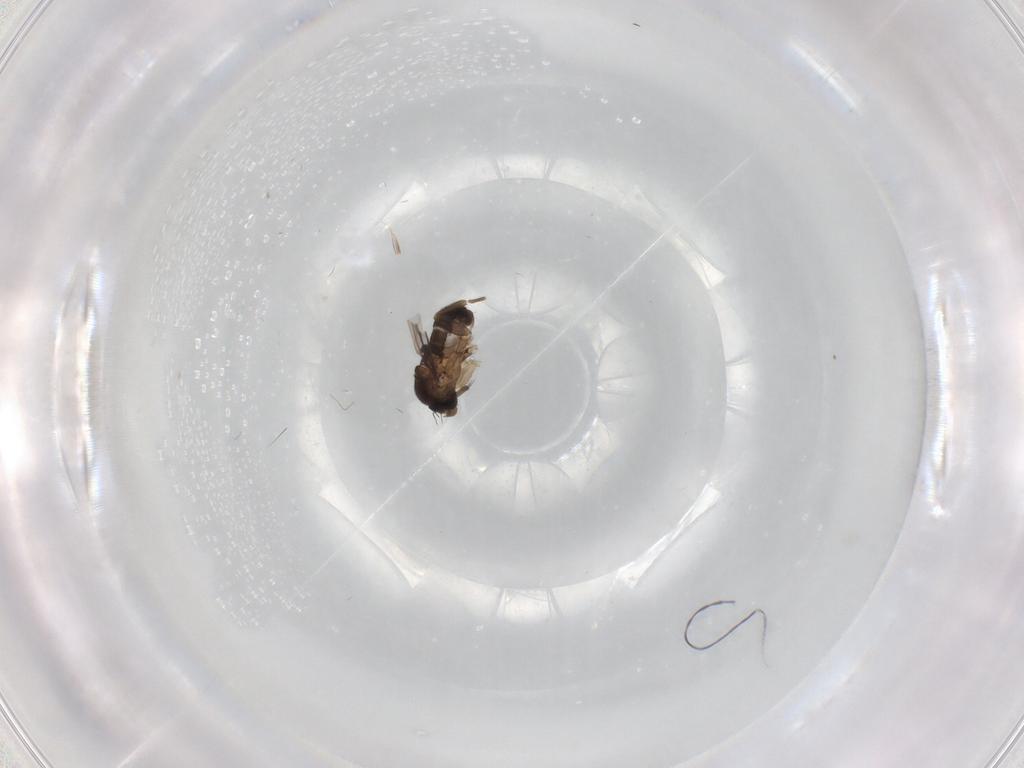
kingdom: Animalia
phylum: Arthropoda
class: Insecta
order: Diptera
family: Phoridae
